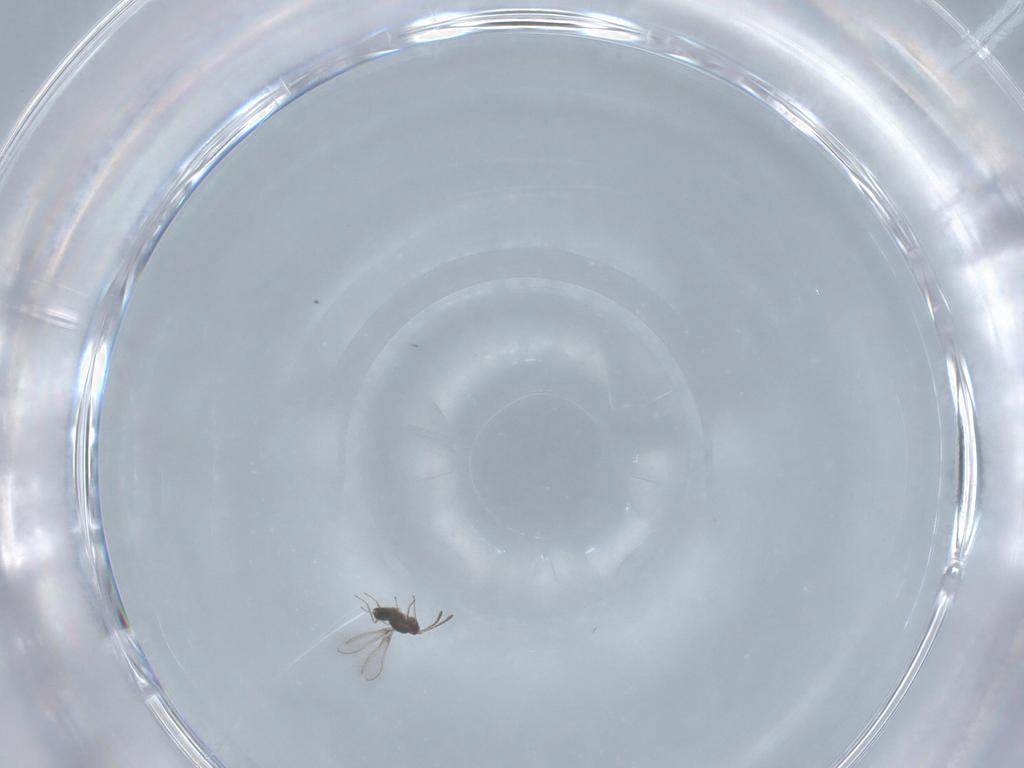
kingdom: Animalia
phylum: Arthropoda
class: Insecta
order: Hymenoptera
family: Mymaridae
